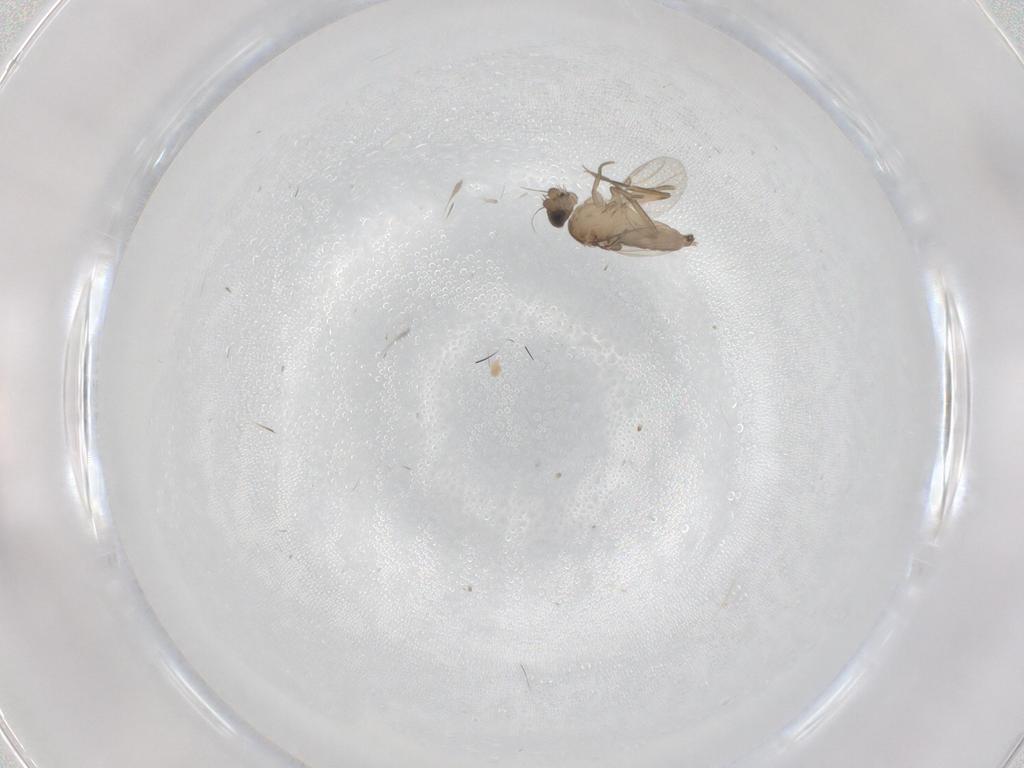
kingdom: Animalia
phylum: Arthropoda
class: Insecta
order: Diptera
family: Phoridae
